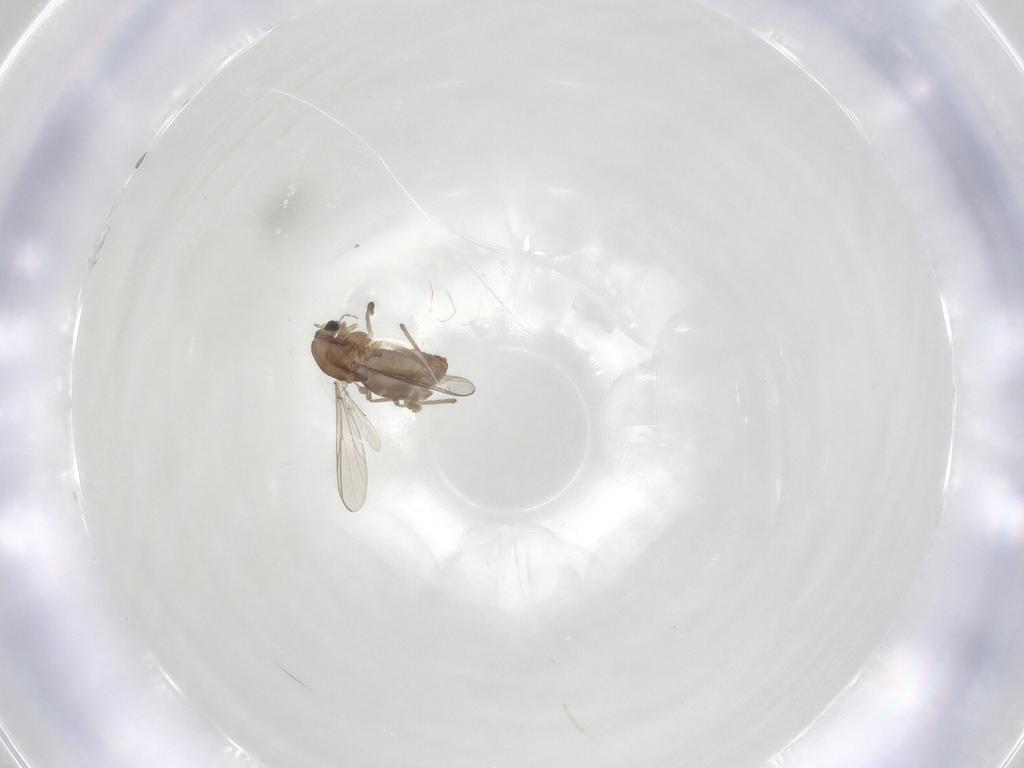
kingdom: Animalia
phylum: Arthropoda
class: Insecta
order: Diptera
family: Chironomidae
